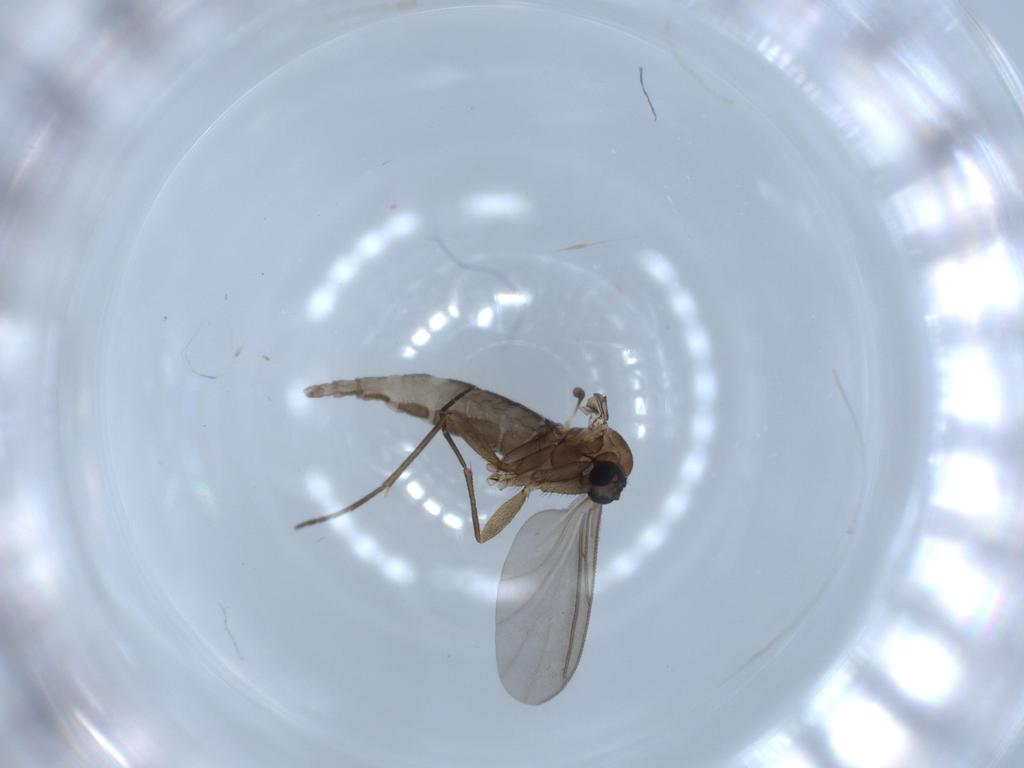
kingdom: Animalia
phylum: Arthropoda
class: Insecta
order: Diptera
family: Sciaridae
